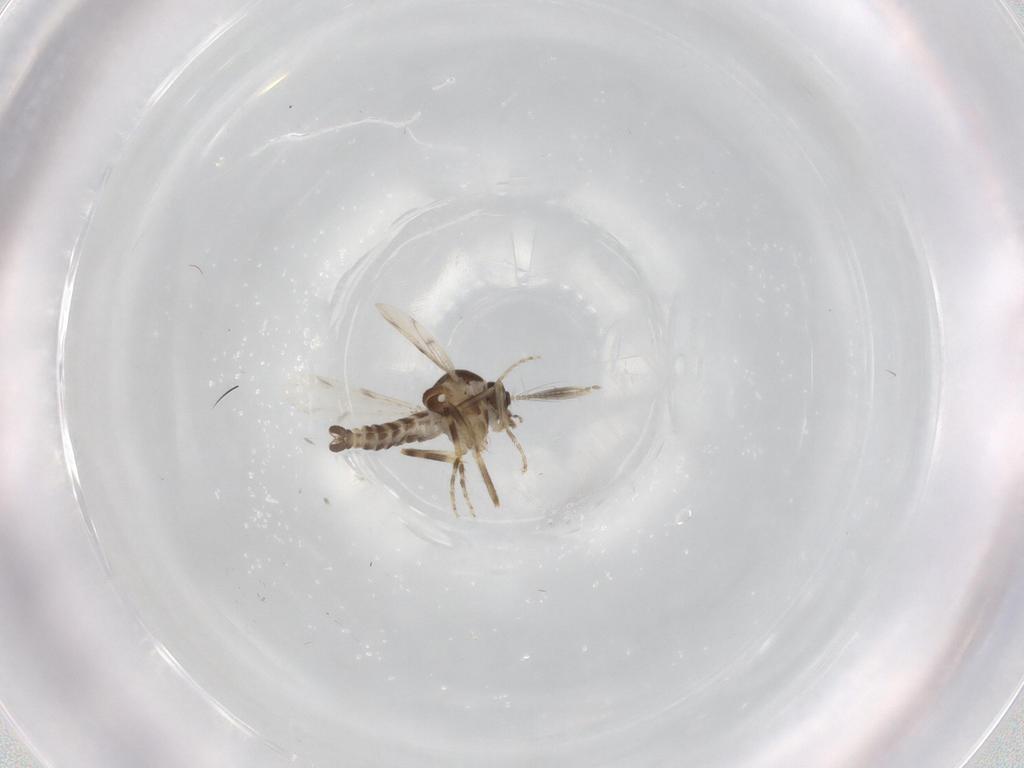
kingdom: Animalia
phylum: Arthropoda
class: Insecta
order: Diptera
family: Ceratopogonidae
